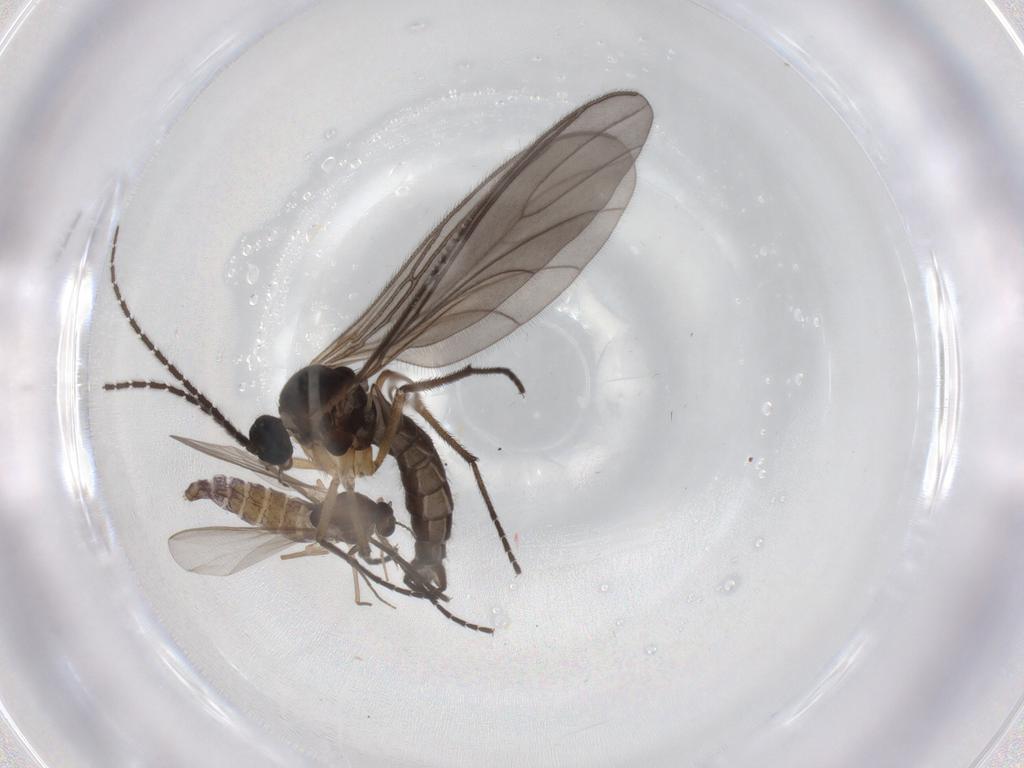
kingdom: Animalia
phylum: Arthropoda
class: Insecta
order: Diptera
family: Sciaridae
